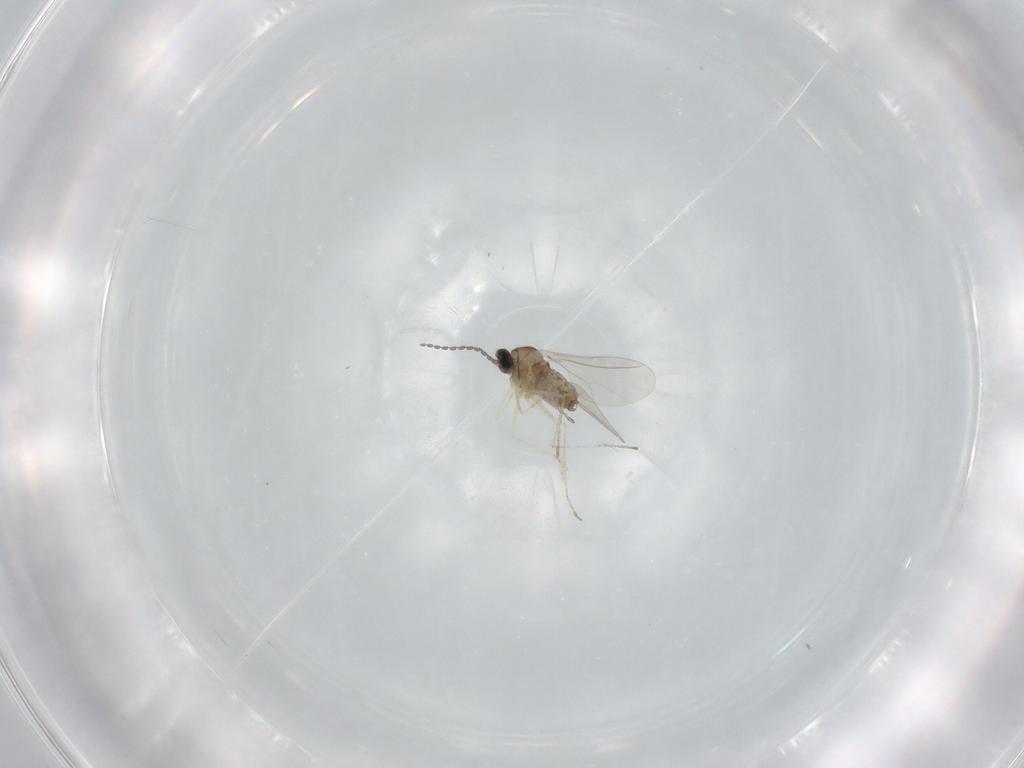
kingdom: Animalia
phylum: Arthropoda
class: Insecta
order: Diptera
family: Cecidomyiidae
